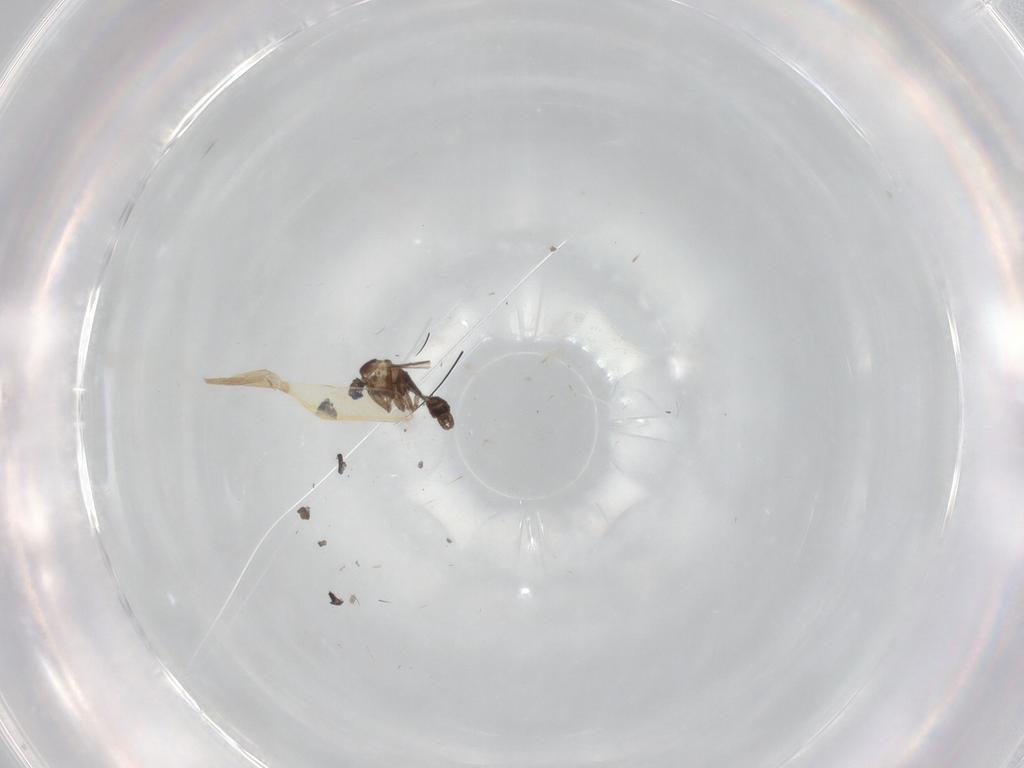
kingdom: Animalia
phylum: Arthropoda
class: Insecta
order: Diptera
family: Sciaridae
